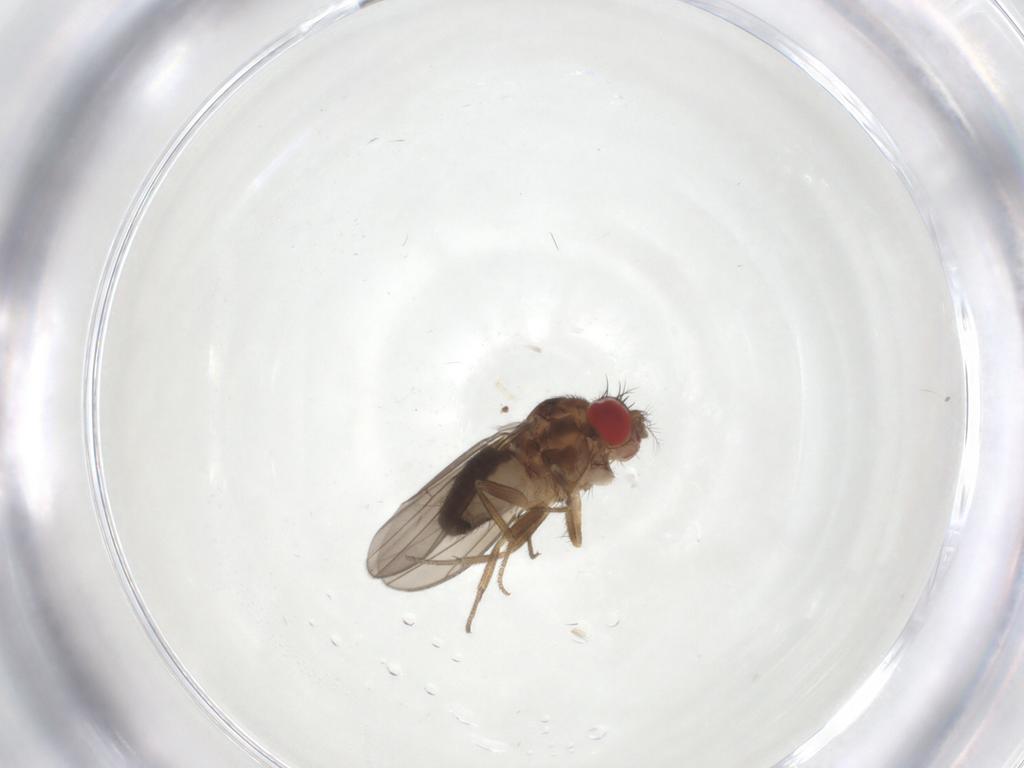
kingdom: Animalia
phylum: Arthropoda
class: Insecta
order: Diptera
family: Drosophilidae
